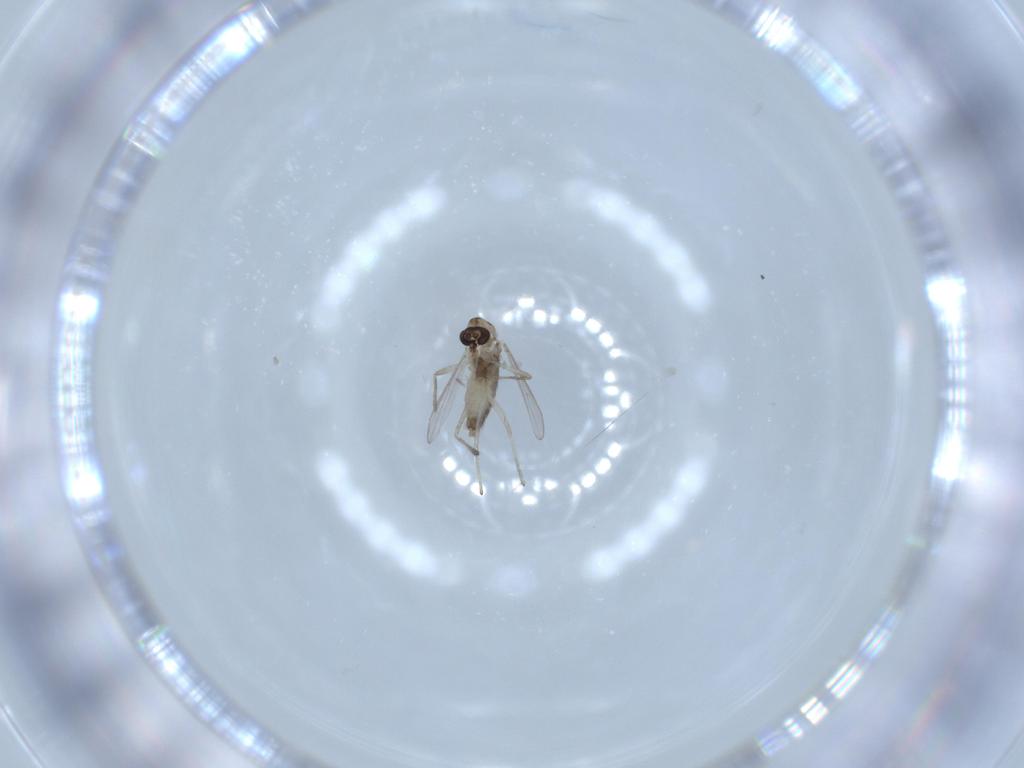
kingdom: Animalia
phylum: Arthropoda
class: Insecta
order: Diptera
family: Chironomidae
